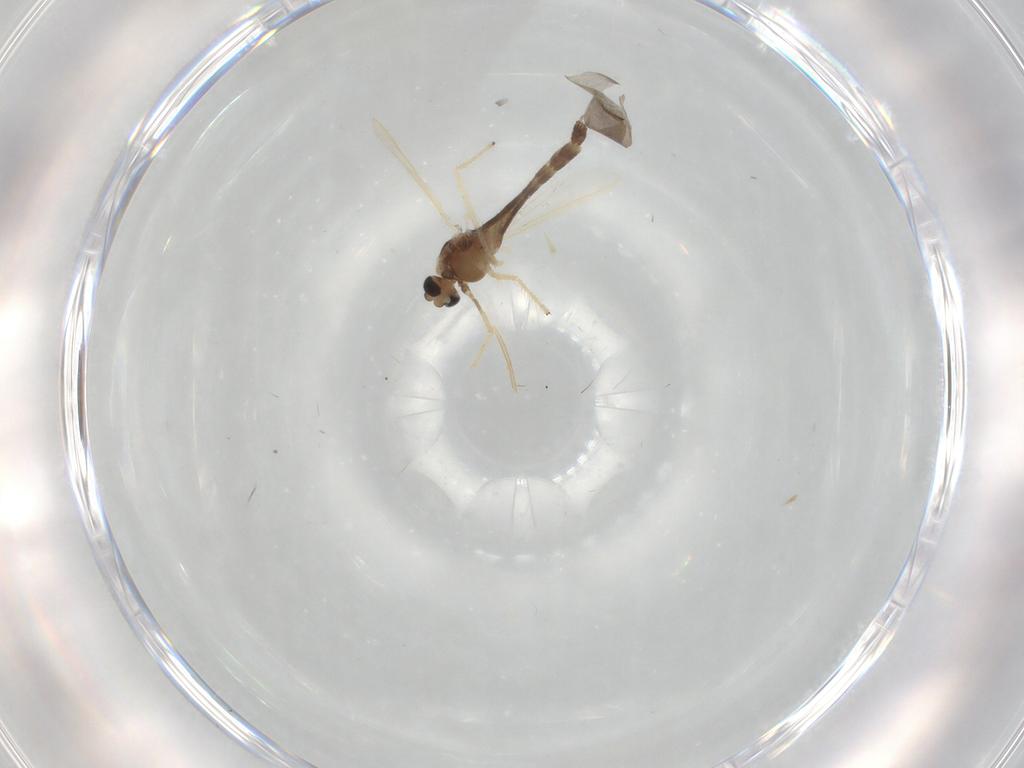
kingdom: Animalia
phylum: Arthropoda
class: Insecta
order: Diptera
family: Chironomidae
